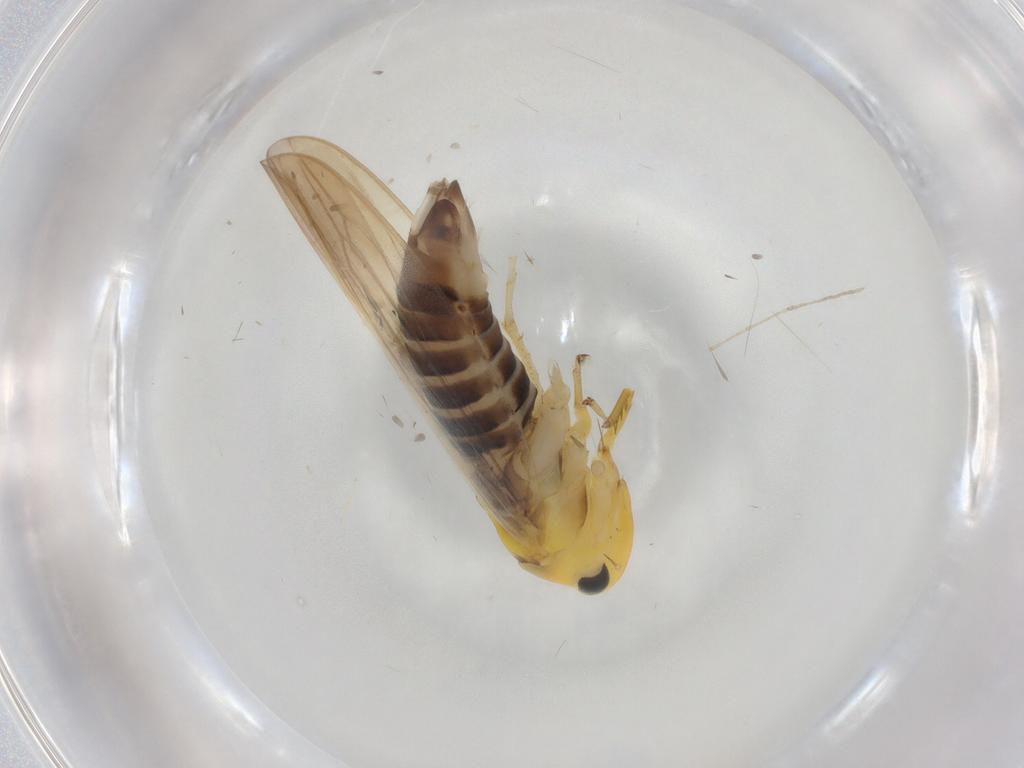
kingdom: Animalia
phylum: Arthropoda
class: Insecta
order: Hemiptera
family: Cicadellidae
